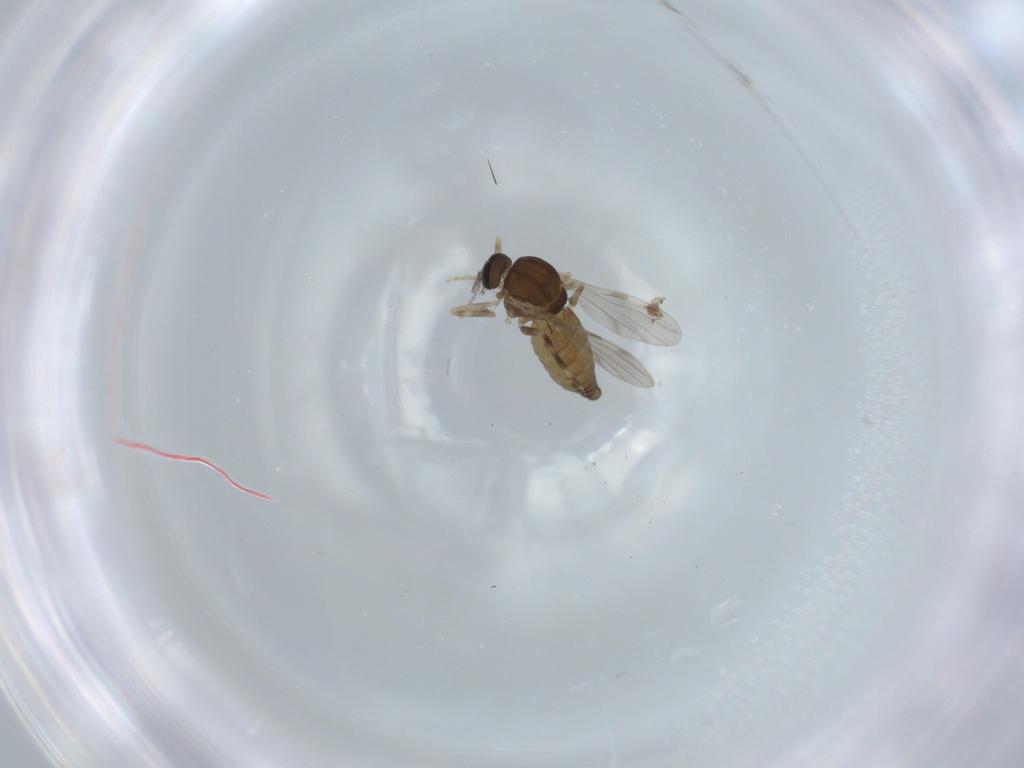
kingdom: Animalia
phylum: Arthropoda
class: Insecta
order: Diptera
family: Ceratopogonidae
